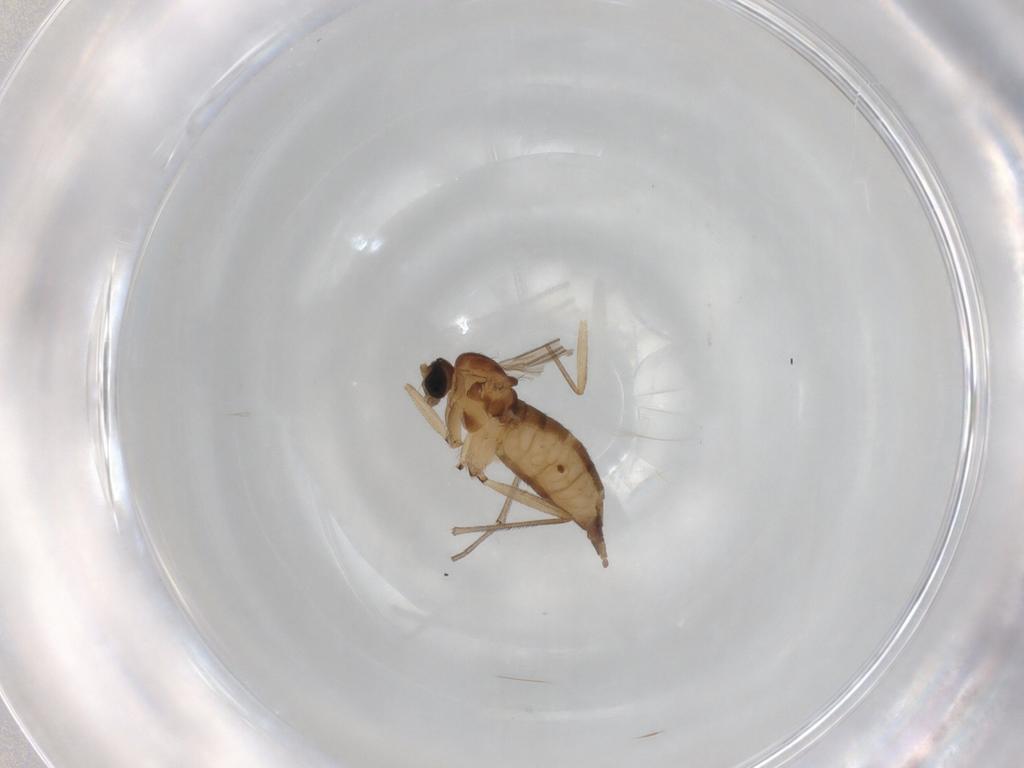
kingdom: Animalia
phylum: Arthropoda
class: Insecta
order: Diptera
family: Sciaridae
